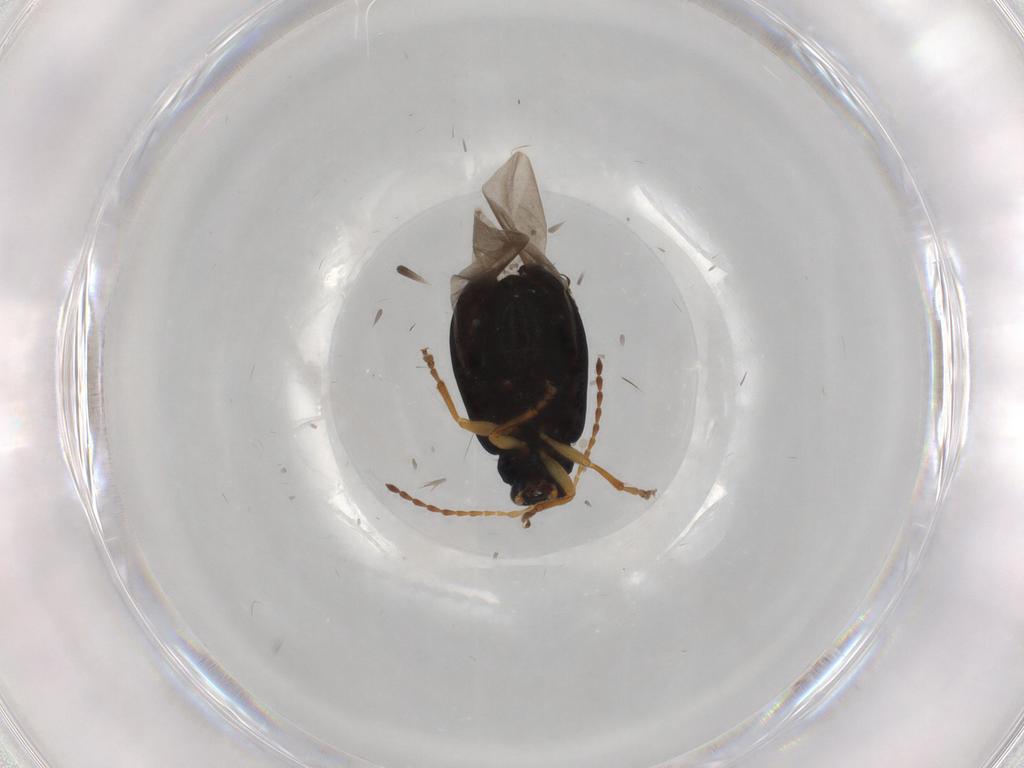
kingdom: Animalia
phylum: Arthropoda
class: Insecta
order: Coleoptera
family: Chrysomelidae
